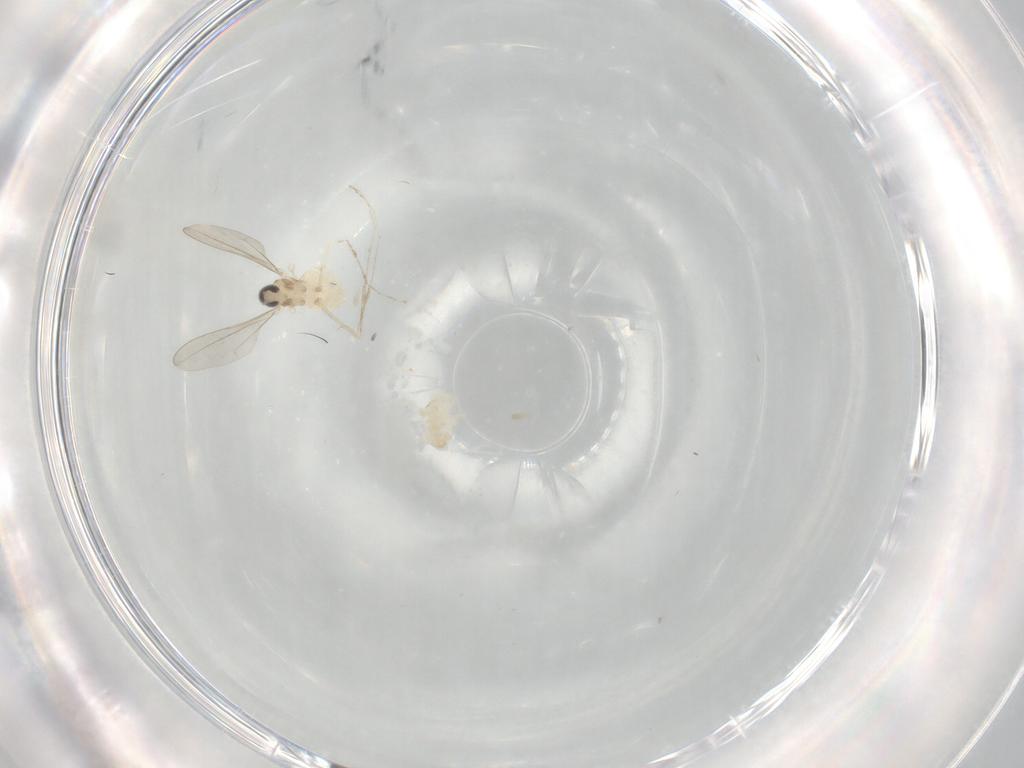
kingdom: Animalia
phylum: Arthropoda
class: Insecta
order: Diptera
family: Cecidomyiidae
